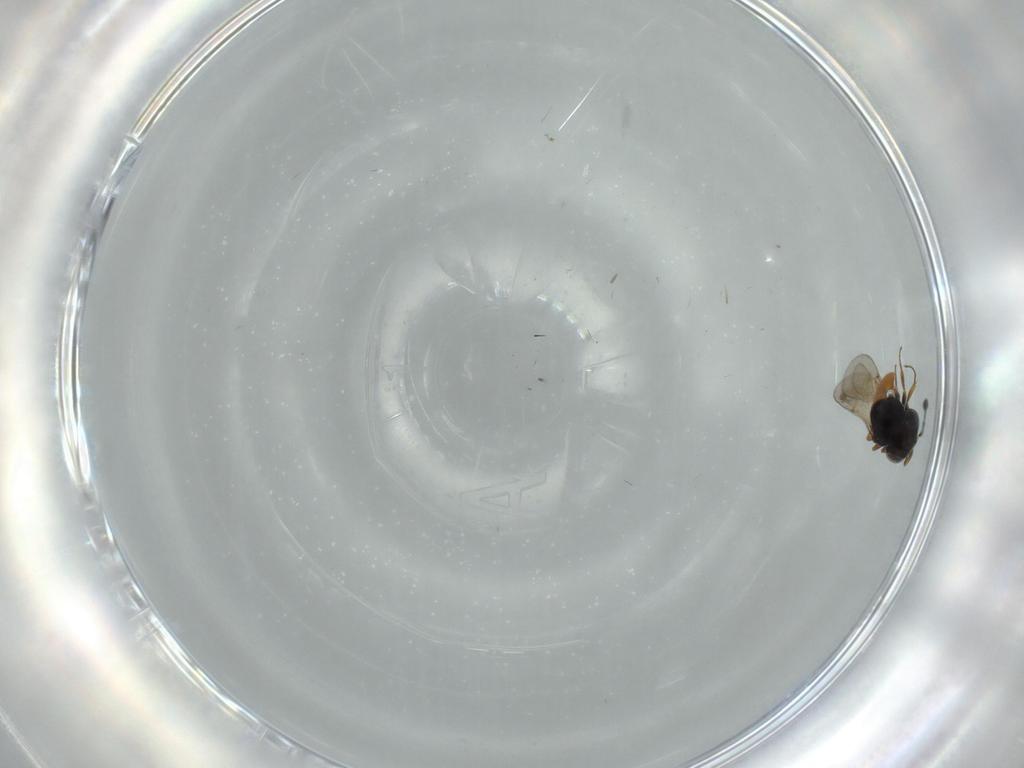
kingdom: Animalia
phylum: Arthropoda
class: Insecta
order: Hymenoptera
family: Scelionidae
